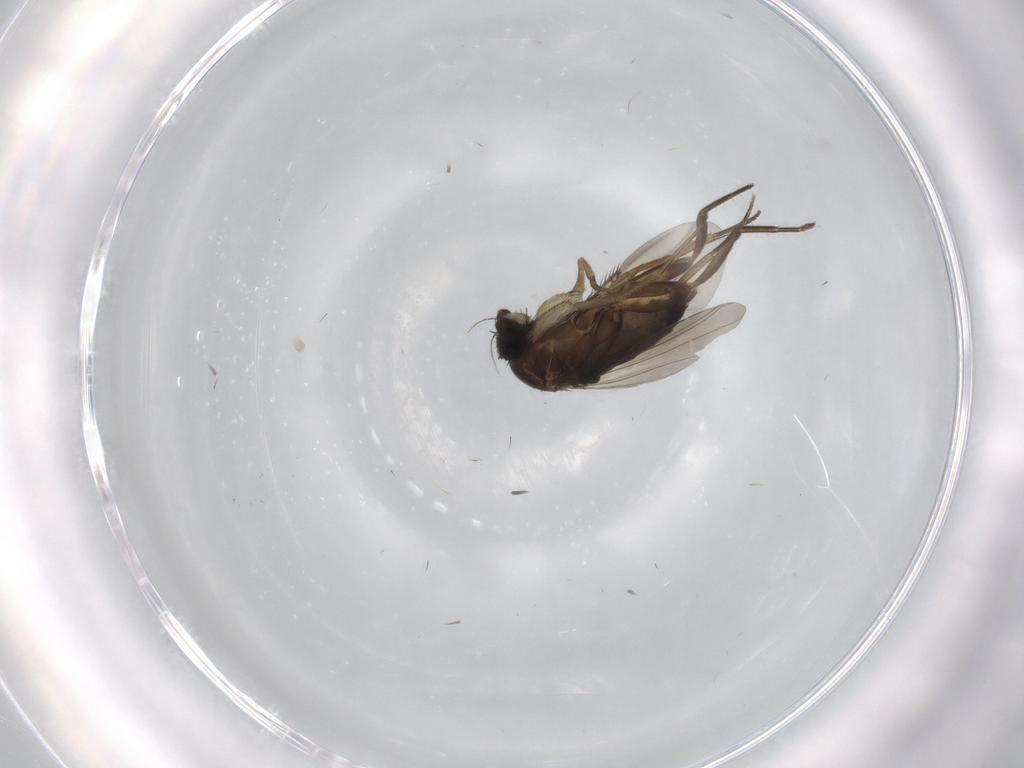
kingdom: Animalia
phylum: Arthropoda
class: Insecta
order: Diptera
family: Phoridae
